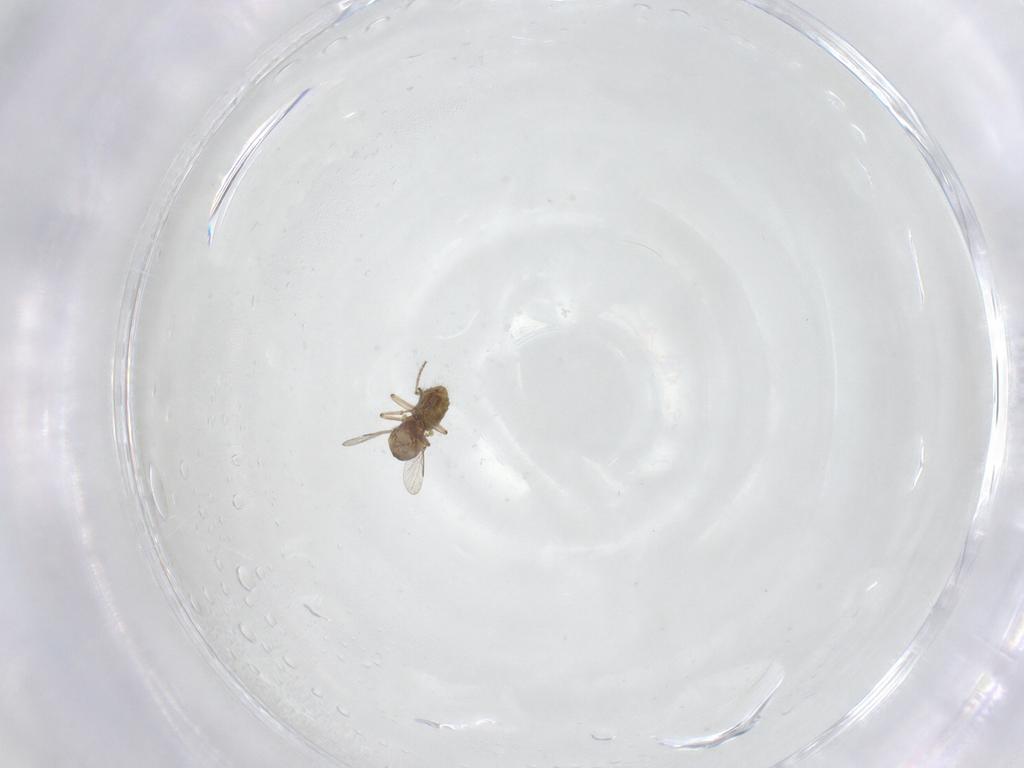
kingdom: Animalia
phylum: Arthropoda
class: Insecta
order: Diptera
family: Ceratopogonidae
